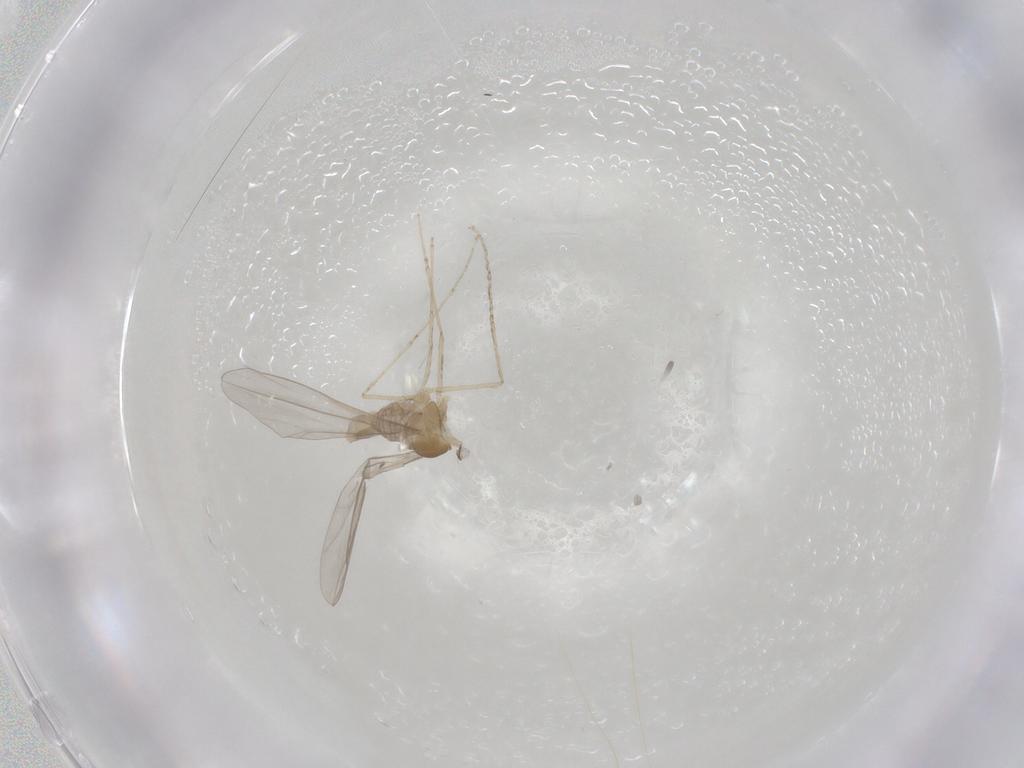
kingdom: Animalia
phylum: Arthropoda
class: Insecta
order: Diptera
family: Cecidomyiidae
